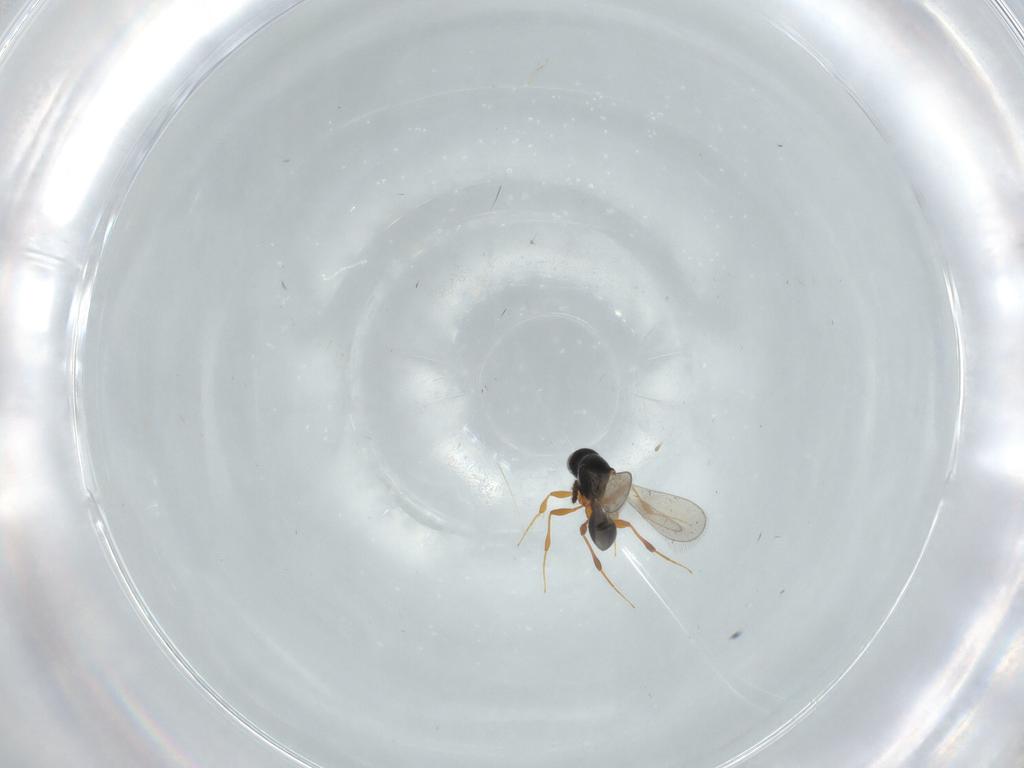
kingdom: Animalia
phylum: Arthropoda
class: Insecta
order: Hymenoptera
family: Platygastridae
